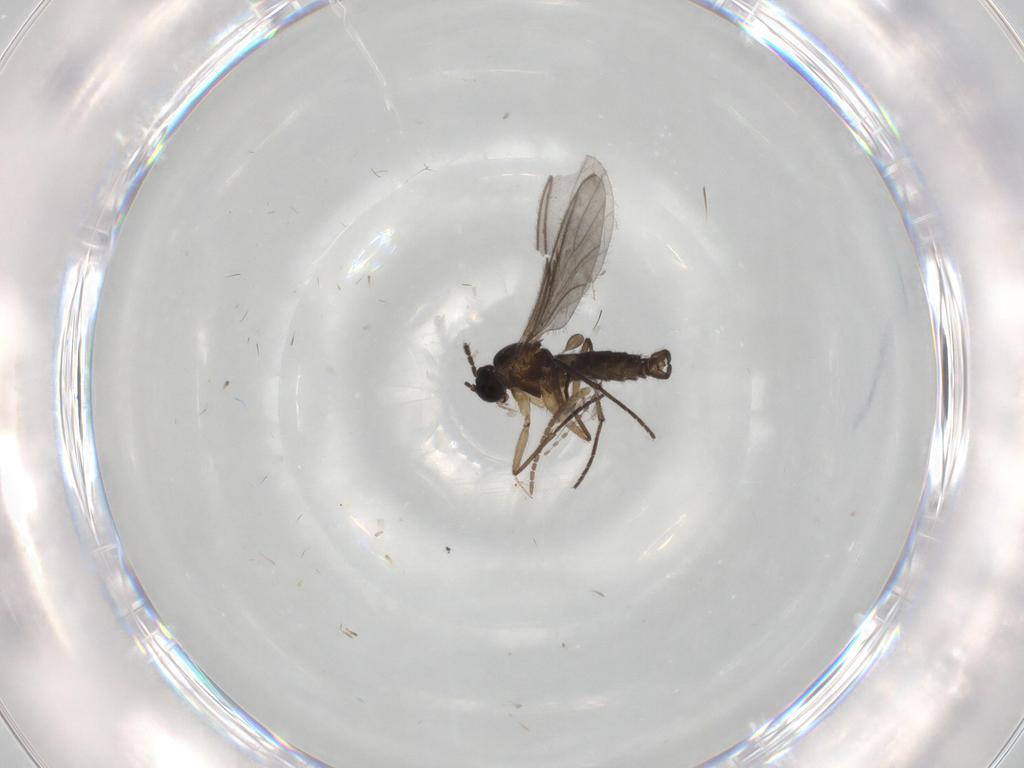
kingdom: Animalia
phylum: Arthropoda
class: Insecta
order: Diptera
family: Sciaridae
